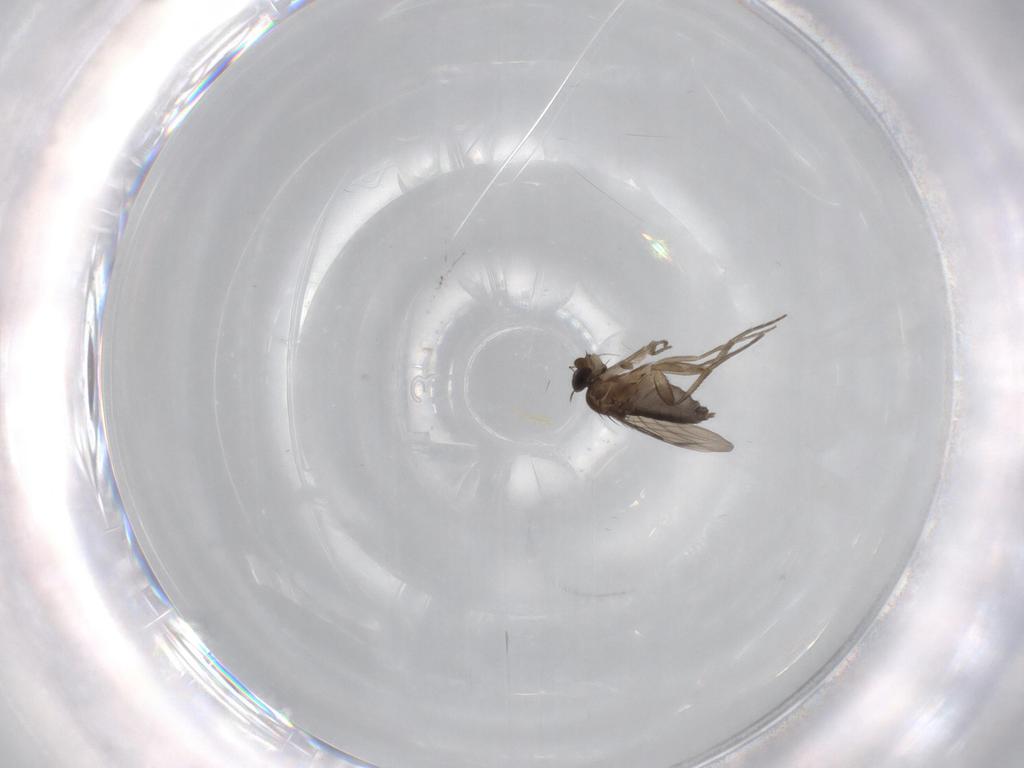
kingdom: Animalia
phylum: Arthropoda
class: Insecta
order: Diptera
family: Phoridae
